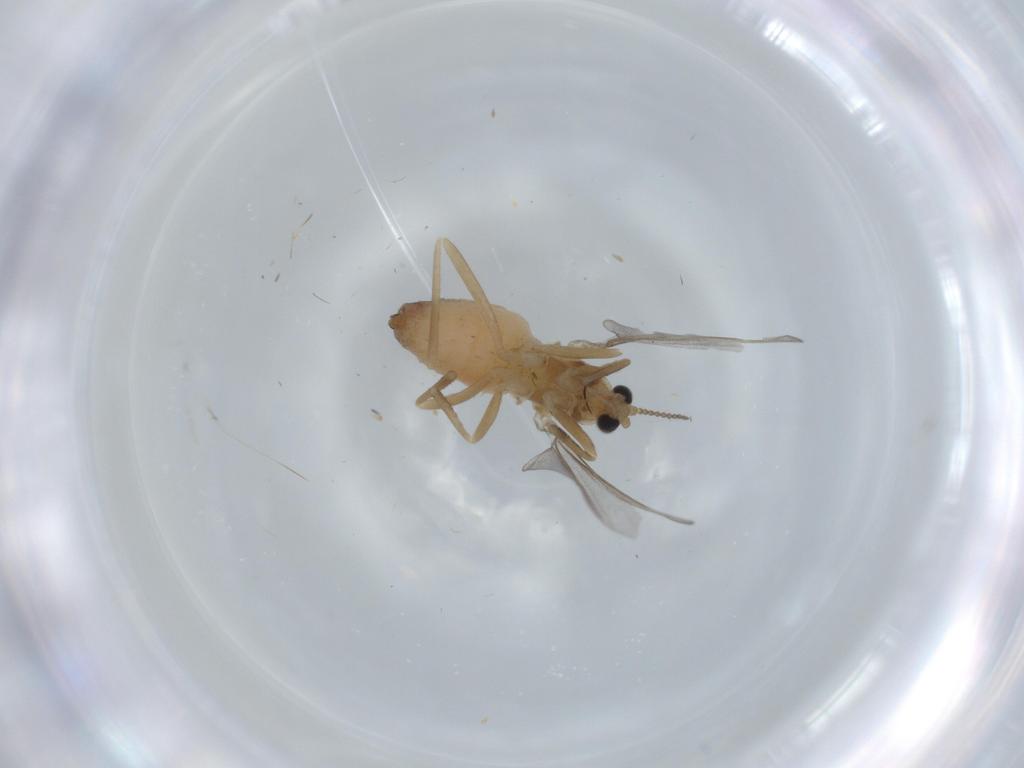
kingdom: Animalia
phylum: Arthropoda
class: Insecta
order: Diptera
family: Cecidomyiidae
